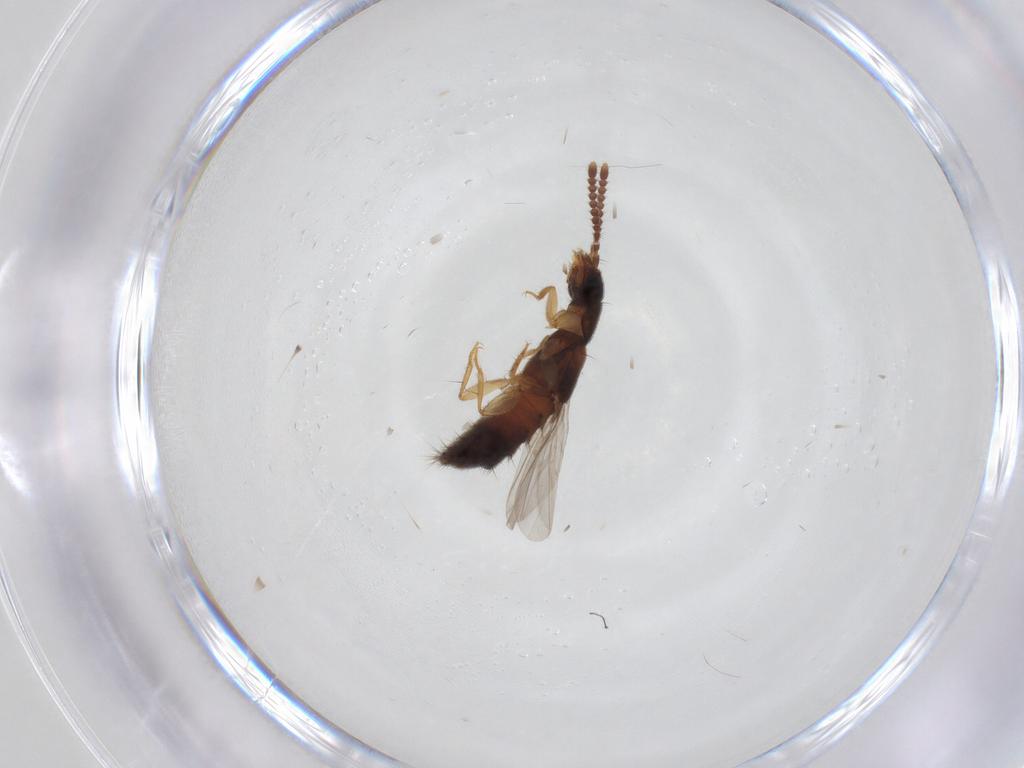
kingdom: Animalia
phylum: Arthropoda
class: Insecta
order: Coleoptera
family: Staphylinidae
